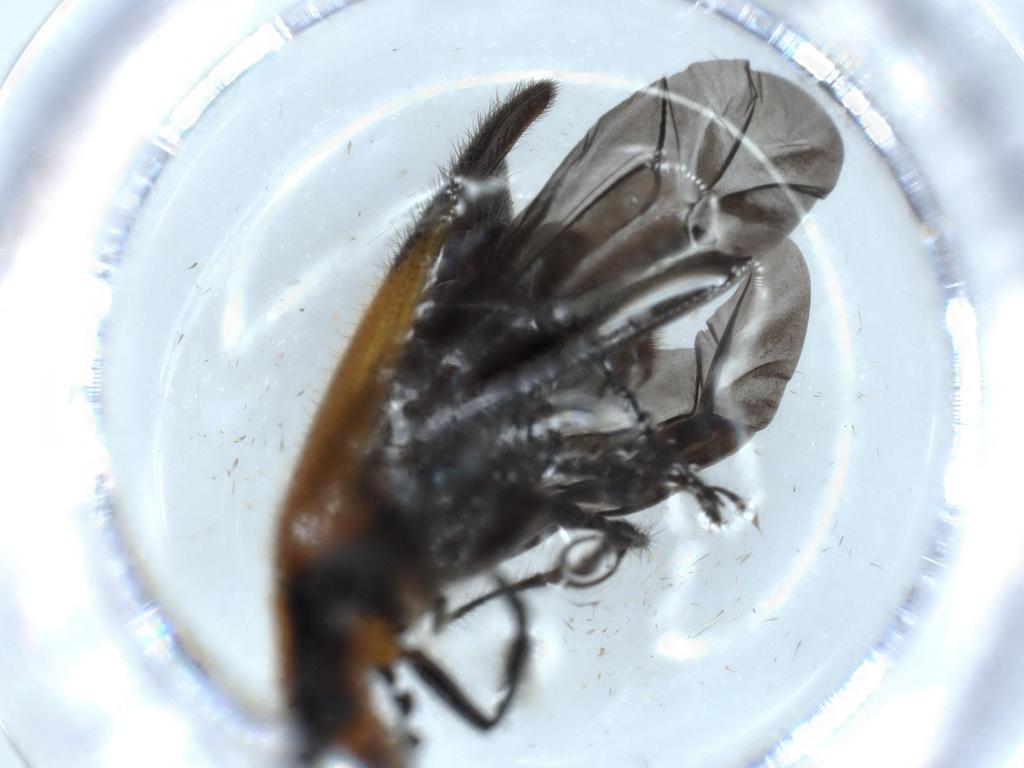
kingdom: Animalia
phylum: Arthropoda
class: Insecta
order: Coleoptera
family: Cleridae
